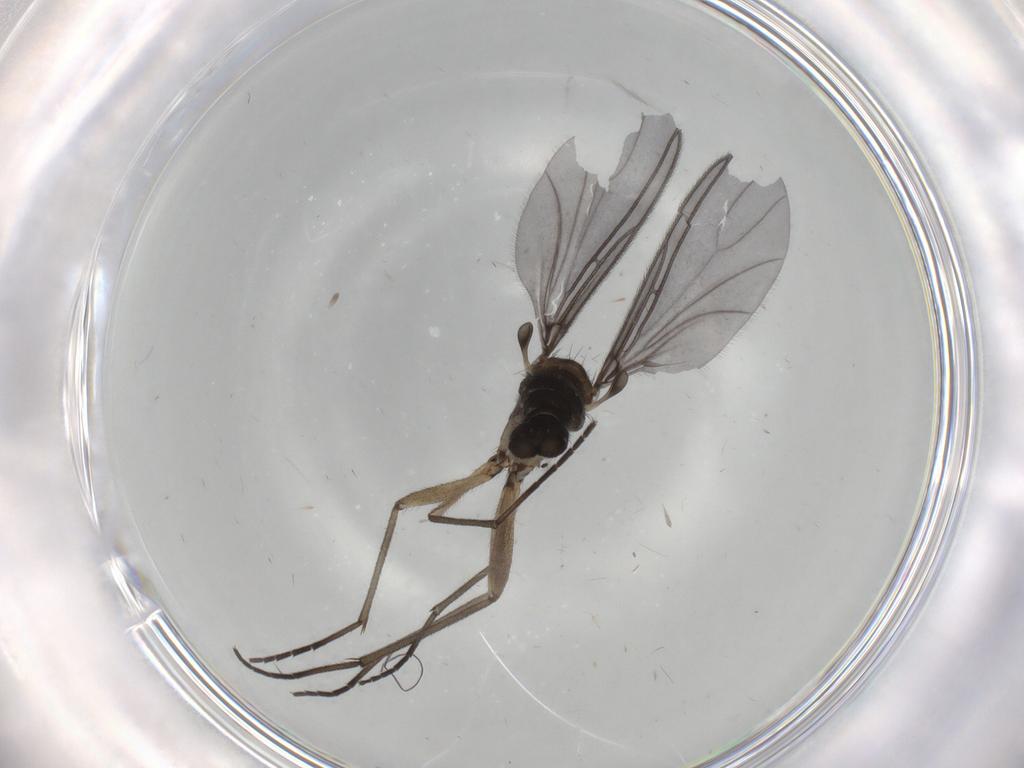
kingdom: Animalia
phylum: Arthropoda
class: Insecta
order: Diptera
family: Sciaridae
